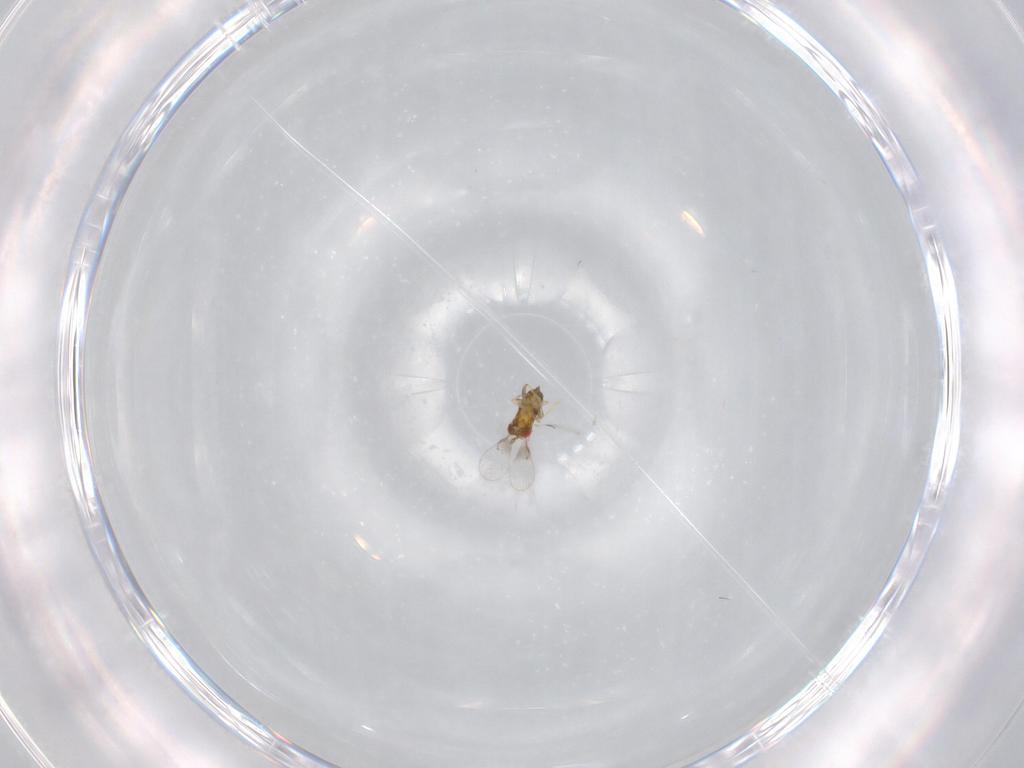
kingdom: Animalia
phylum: Arthropoda
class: Insecta
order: Hymenoptera
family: Trichogrammatidae
